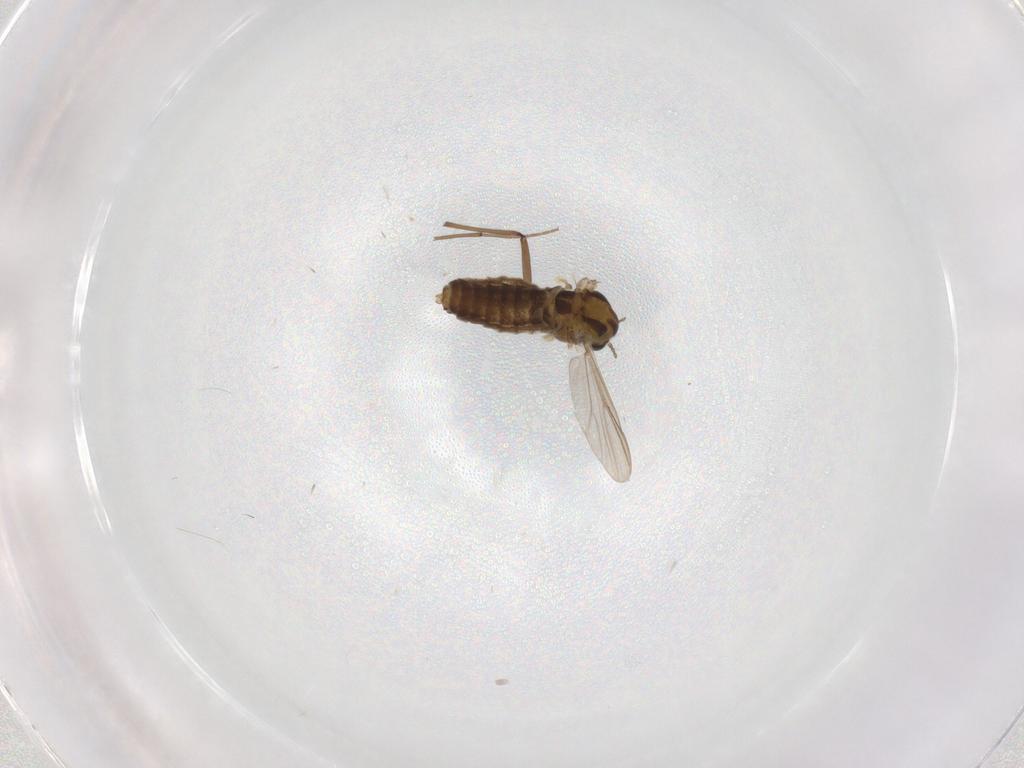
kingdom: Animalia
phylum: Arthropoda
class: Insecta
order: Diptera
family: Chironomidae
